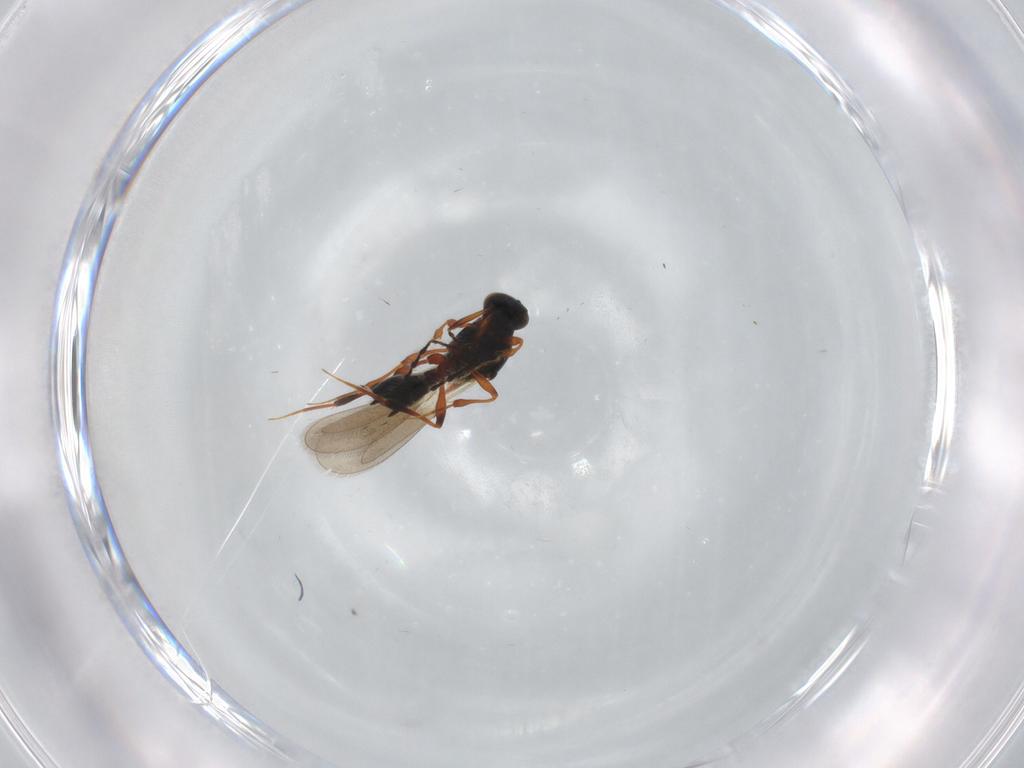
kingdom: Animalia
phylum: Arthropoda
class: Insecta
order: Hymenoptera
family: Platygastridae
